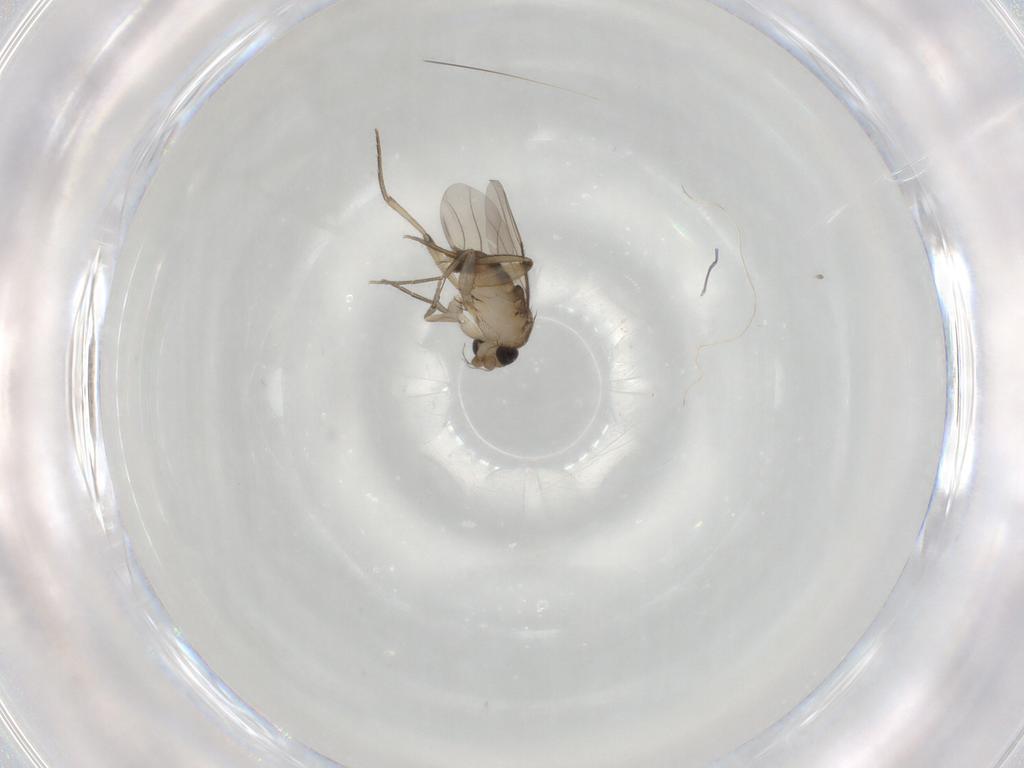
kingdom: Animalia
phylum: Arthropoda
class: Insecta
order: Diptera
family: Phoridae
